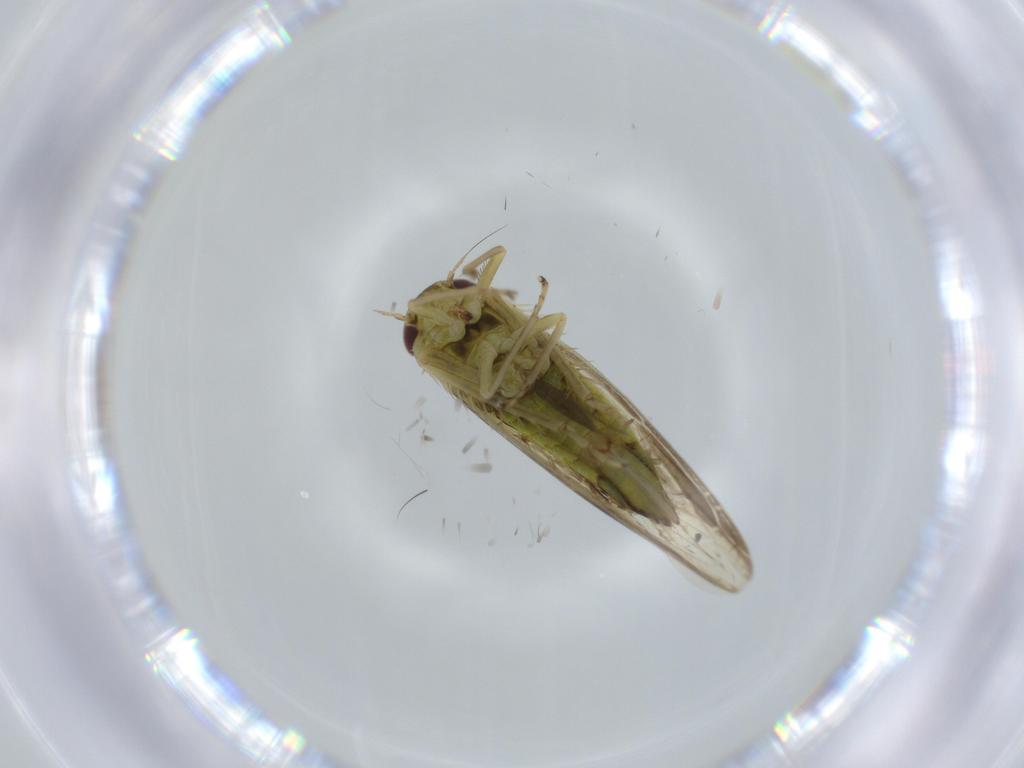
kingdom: Animalia
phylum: Arthropoda
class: Insecta
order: Hemiptera
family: Cicadellidae
